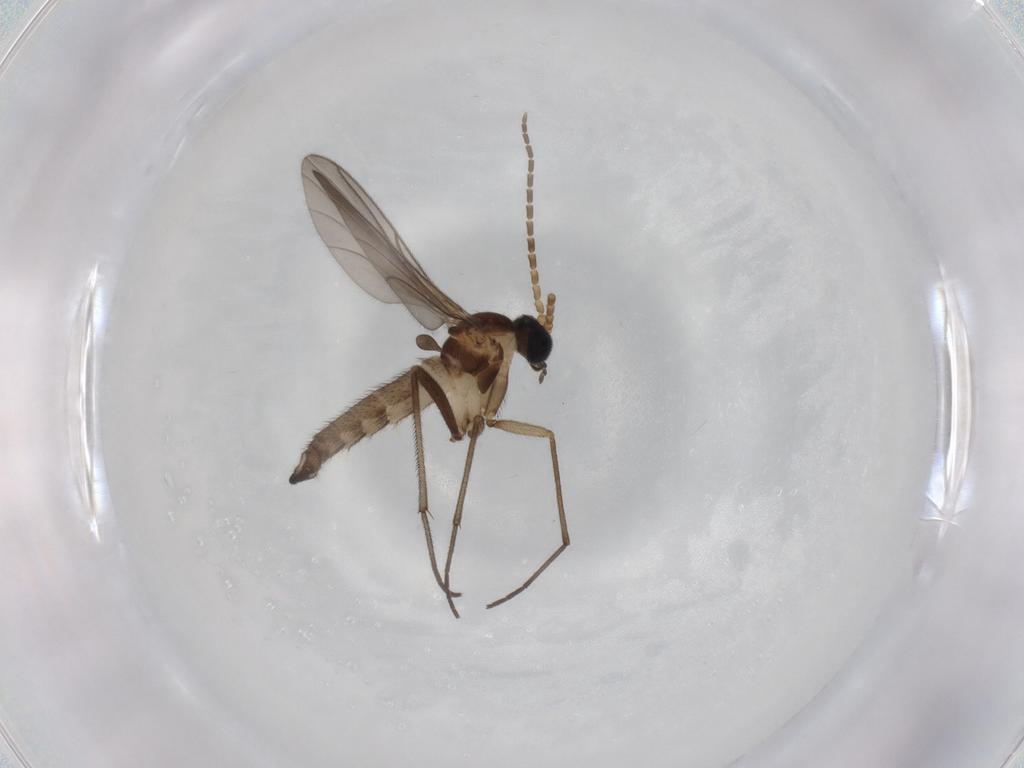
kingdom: Animalia
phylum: Arthropoda
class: Insecta
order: Diptera
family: Sciaridae
